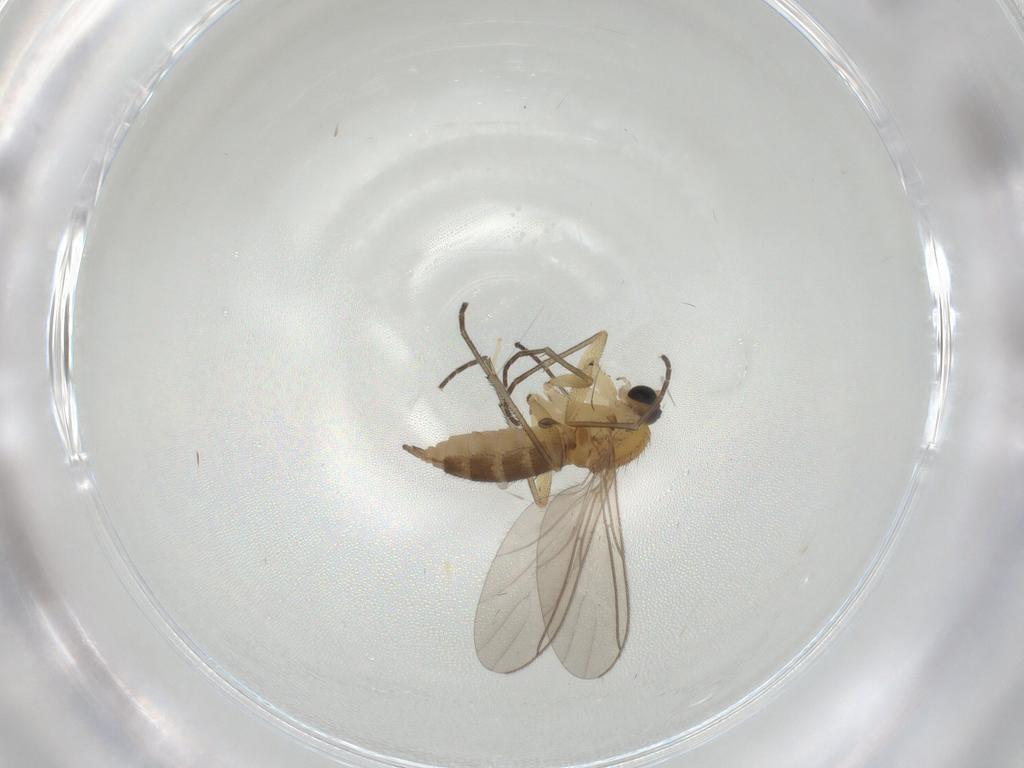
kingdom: Animalia
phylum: Arthropoda
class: Insecta
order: Diptera
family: Sciaridae
